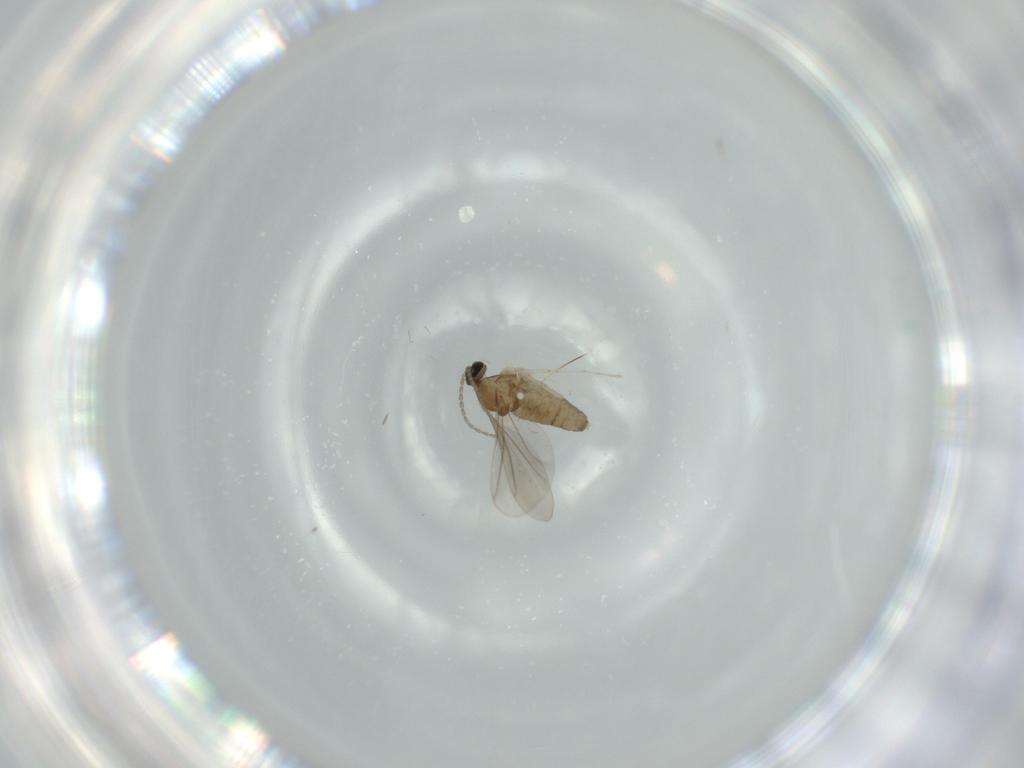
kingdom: Animalia
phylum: Arthropoda
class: Insecta
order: Diptera
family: Cecidomyiidae
